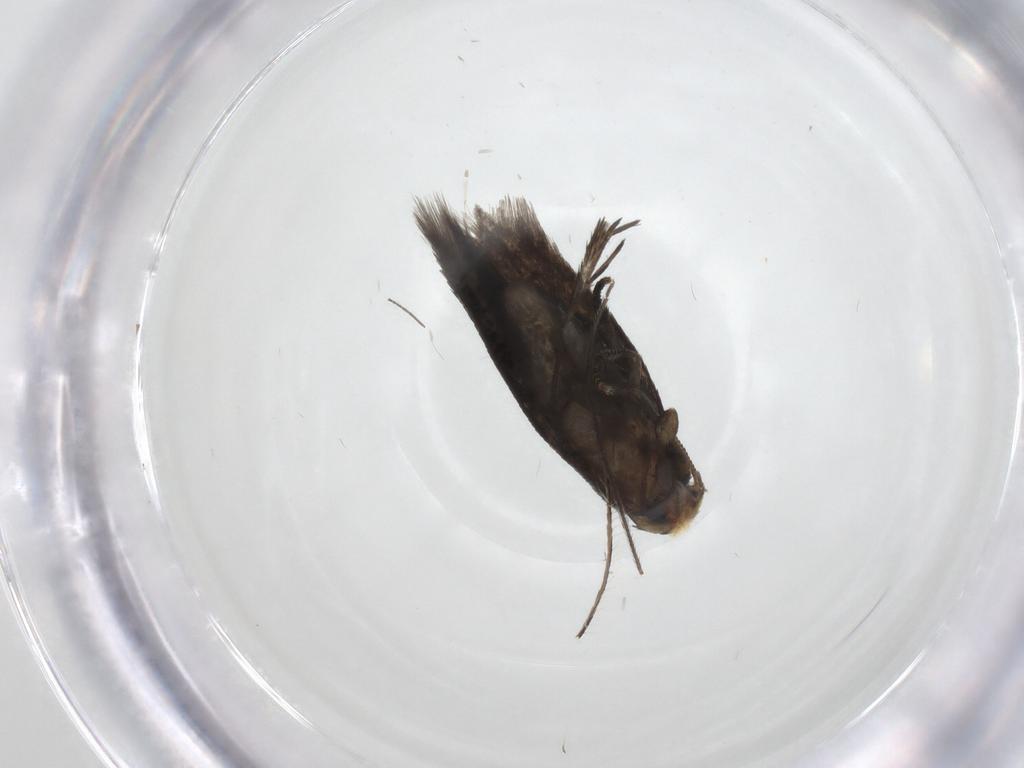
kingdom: Animalia
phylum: Arthropoda
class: Insecta
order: Lepidoptera
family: Nepticulidae
